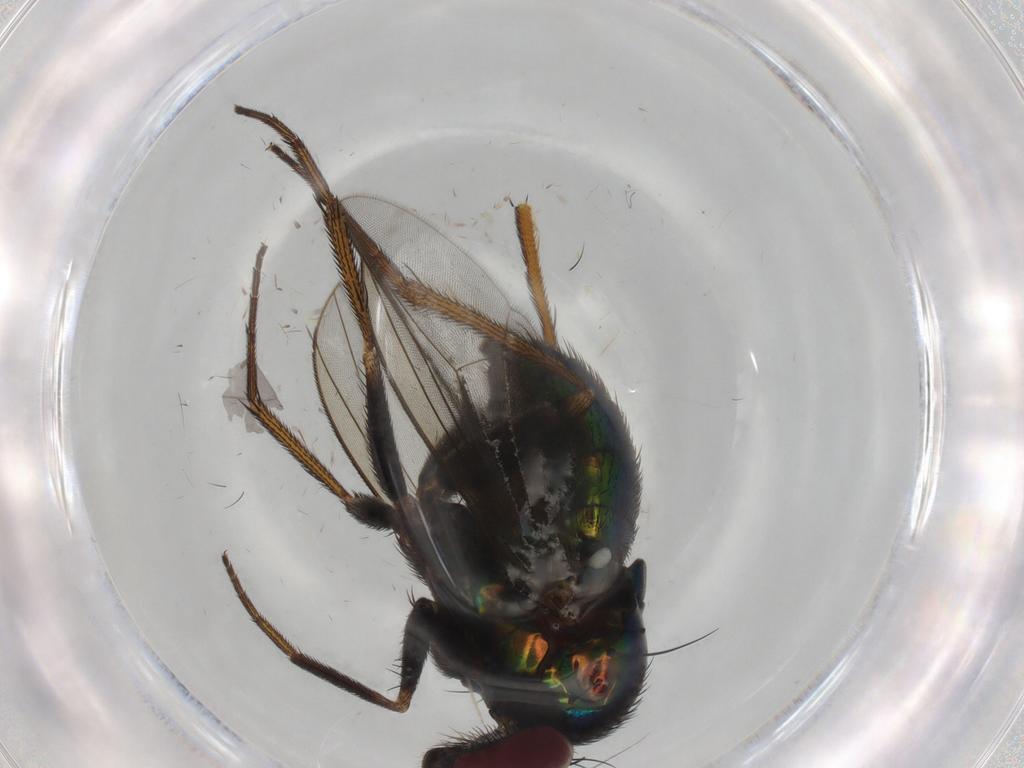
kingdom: Animalia
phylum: Arthropoda
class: Insecta
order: Diptera
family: Dolichopodidae
